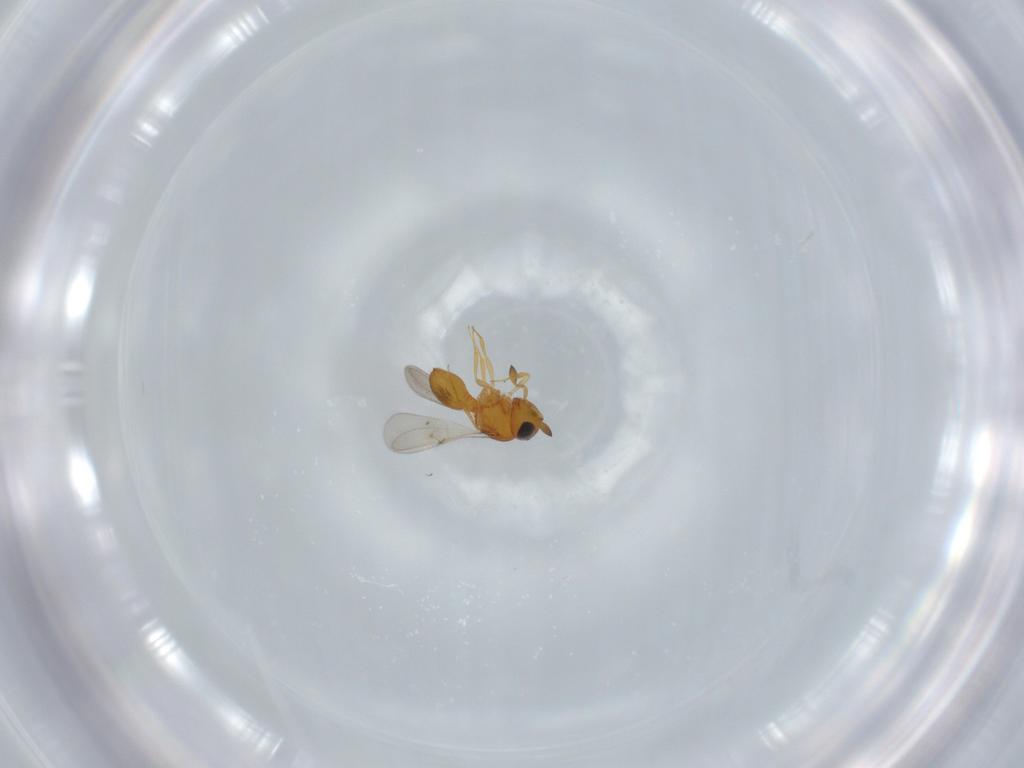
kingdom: Animalia
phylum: Arthropoda
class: Insecta
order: Hymenoptera
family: Scelionidae
